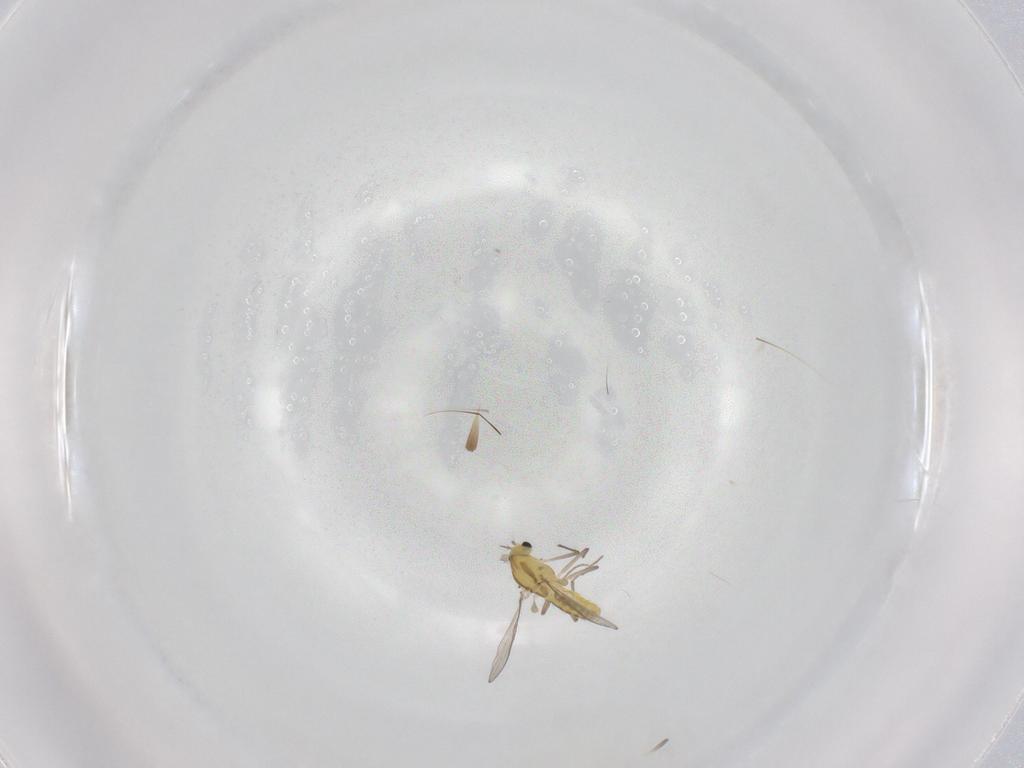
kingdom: Animalia
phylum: Arthropoda
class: Insecta
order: Diptera
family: Chironomidae
